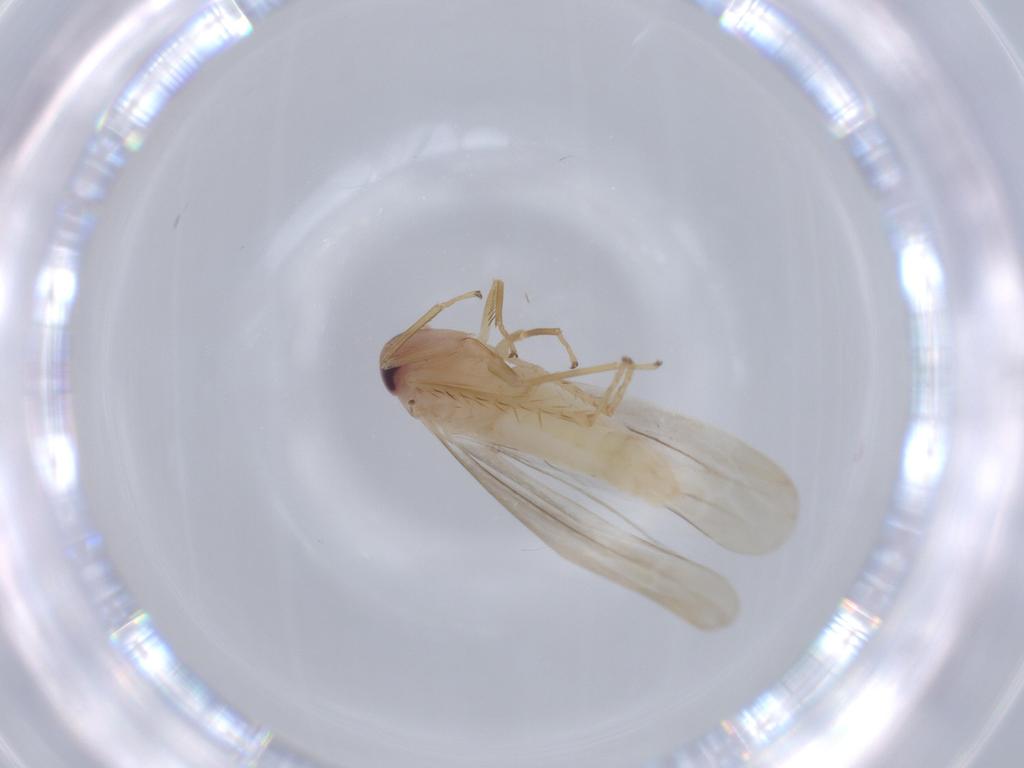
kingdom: Animalia
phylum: Arthropoda
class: Insecta
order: Hemiptera
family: Cicadellidae
